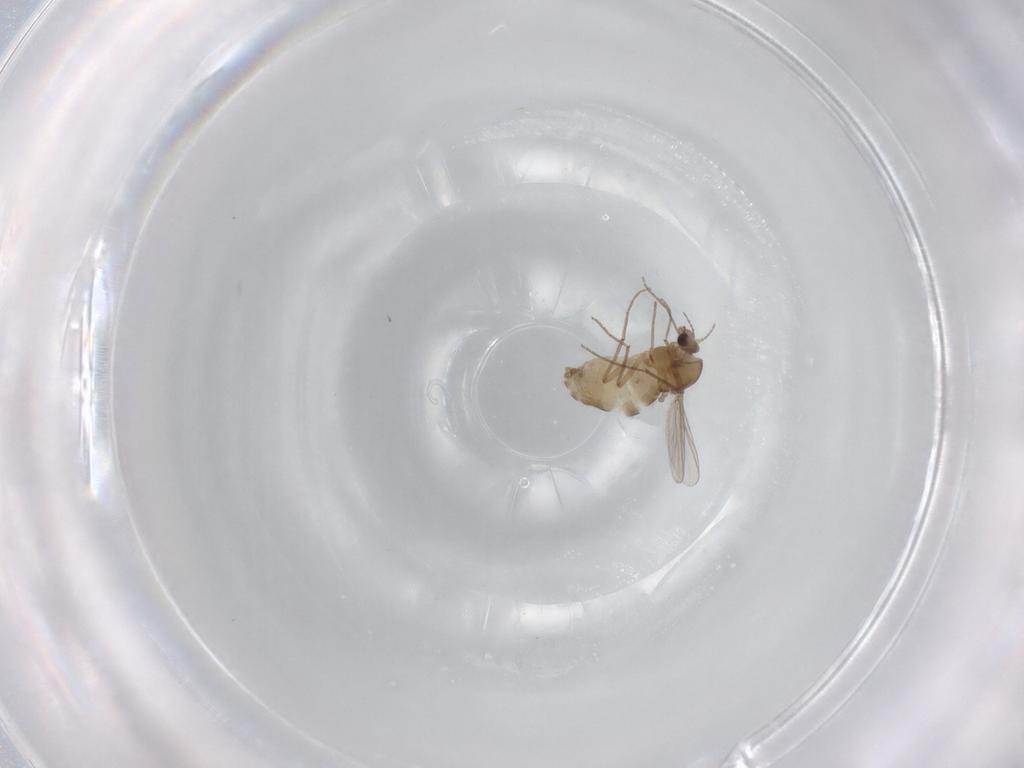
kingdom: Animalia
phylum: Arthropoda
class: Insecta
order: Diptera
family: Chironomidae
